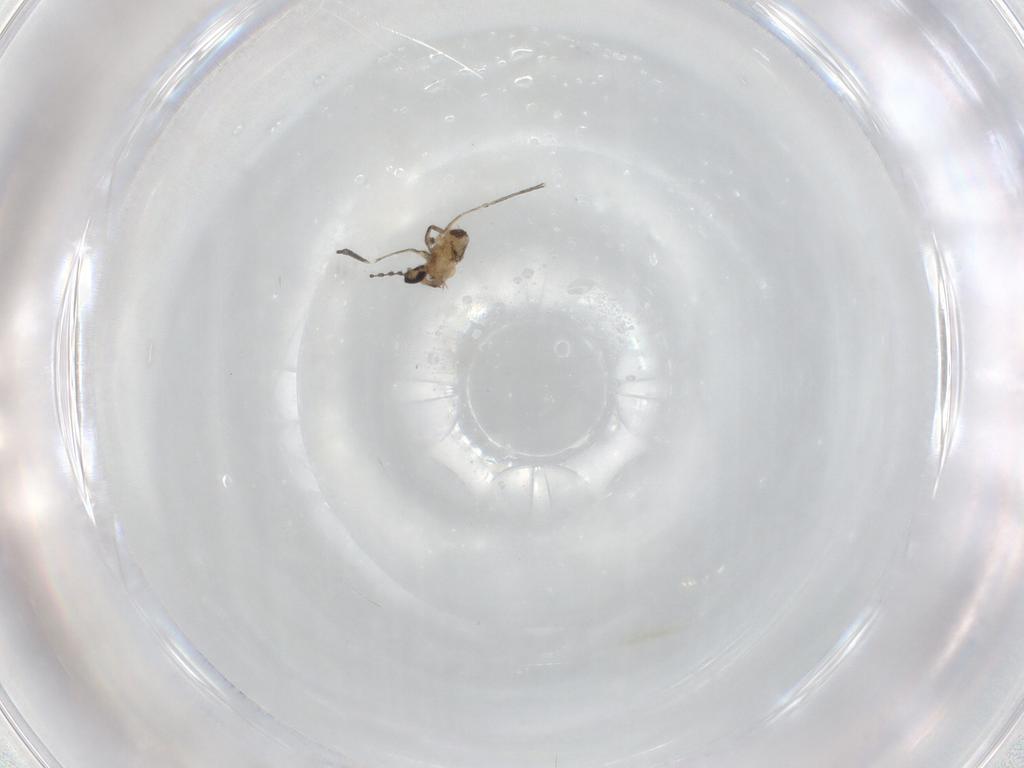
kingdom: Animalia
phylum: Arthropoda
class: Insecta
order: Diptera
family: Cecidomyiidae
